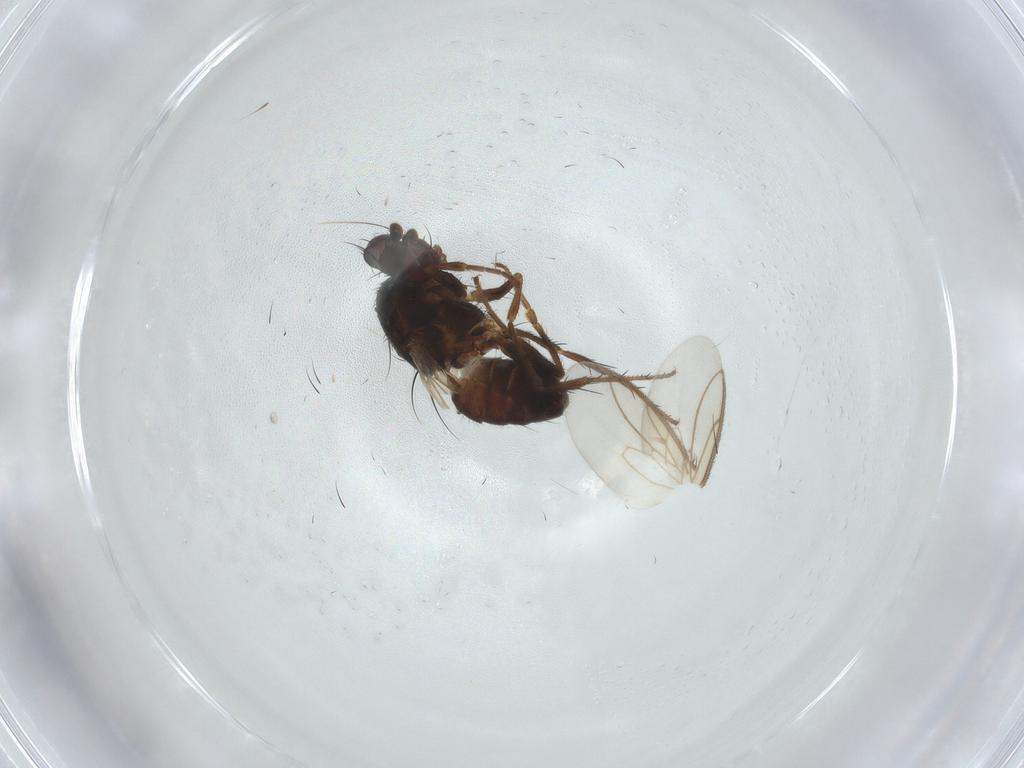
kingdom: Animalia
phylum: Arthropoda
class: Insecta
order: Diptera
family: Sphaeroceridae
